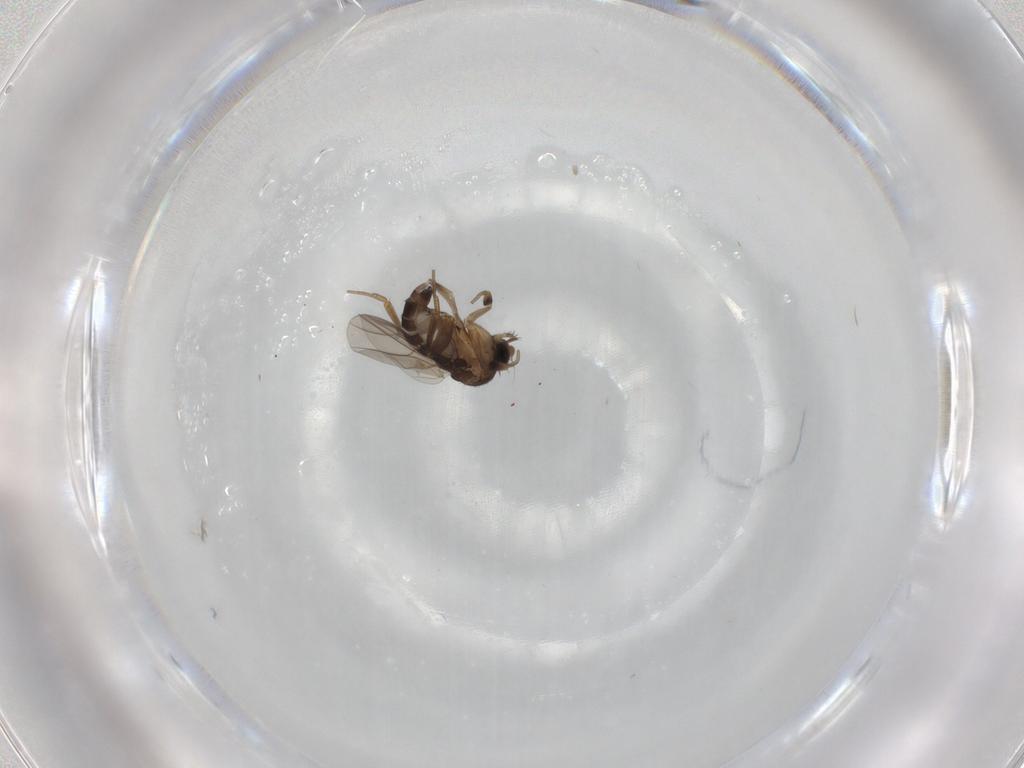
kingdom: Animalia
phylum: Arthropoda
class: Insecta
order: Diptera
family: Phoridae
